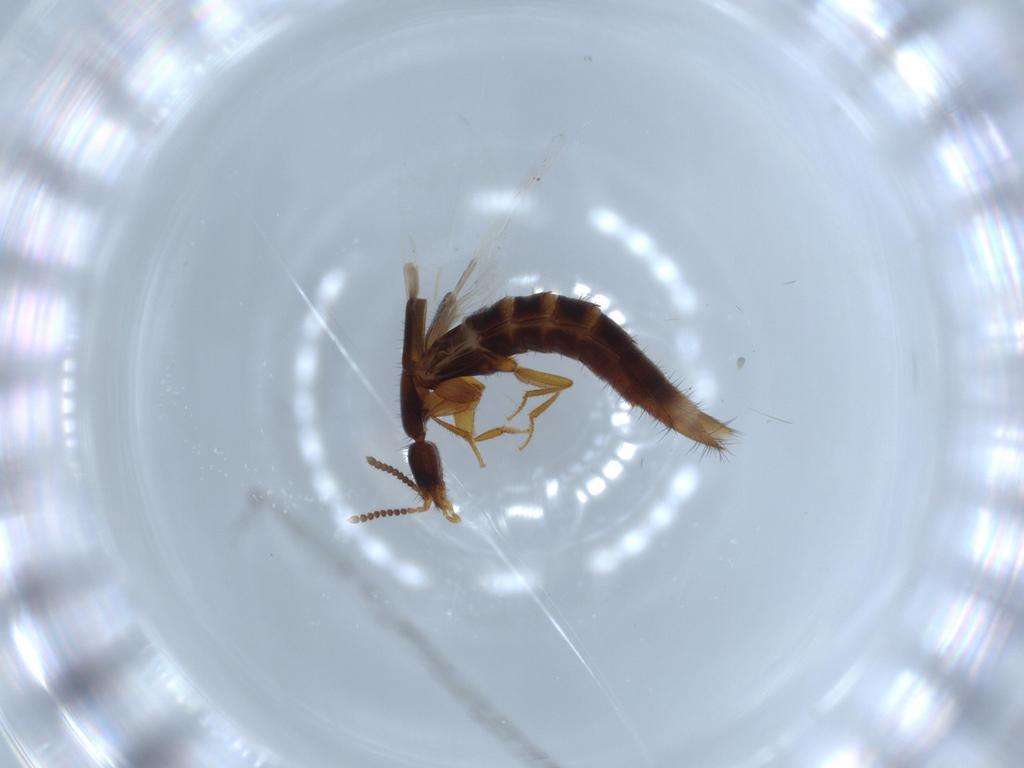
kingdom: Animalia
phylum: Arthropoda
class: Insecta
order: Coleoptera
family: Staphylinidae
